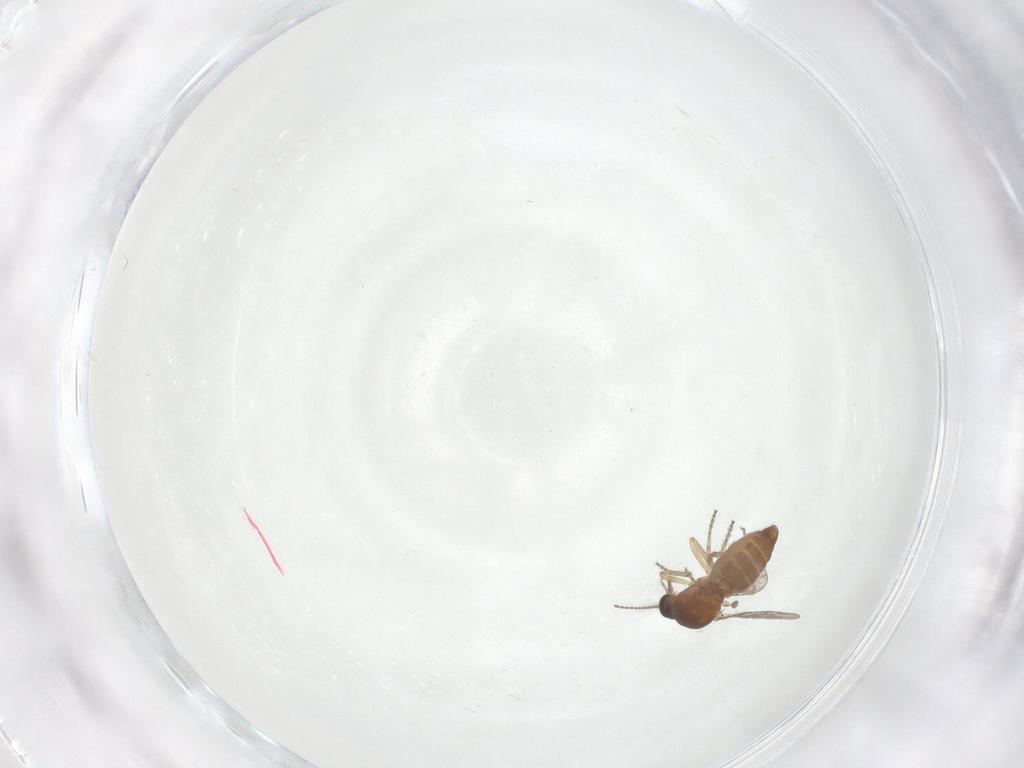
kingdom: Animalia
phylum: Arthropoda
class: Insecta
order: Diptera
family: Ceratopogonidae
